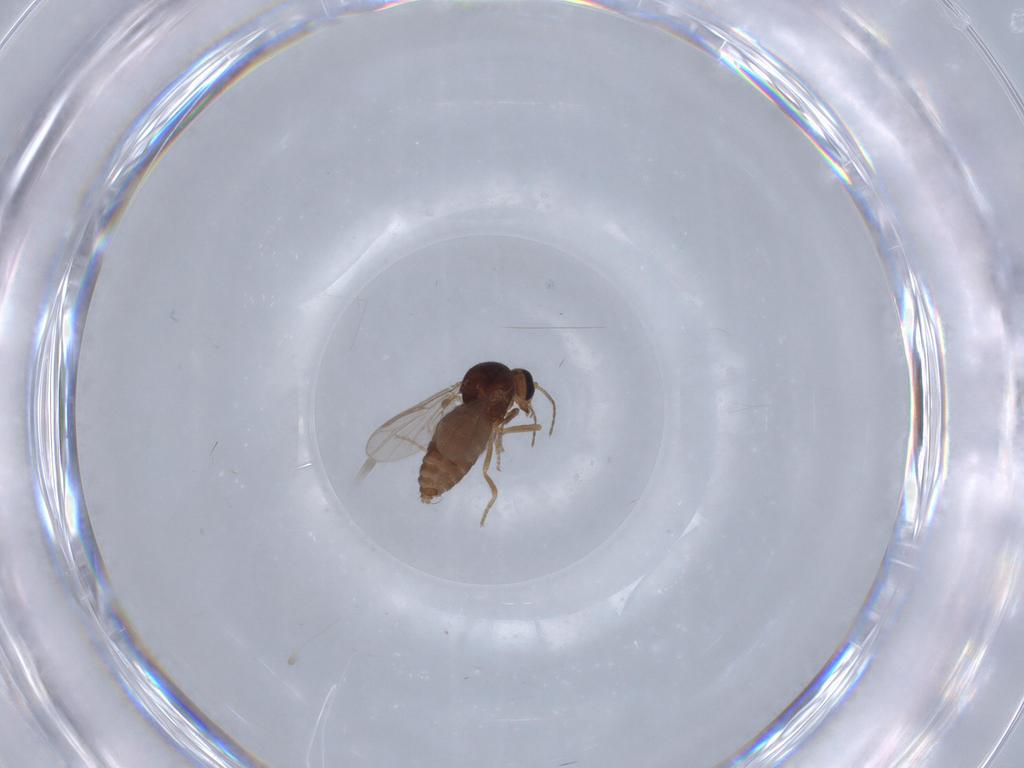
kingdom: Animalia
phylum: Arthropoda
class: Insecta
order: Diptera
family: Ceratopogonidae
